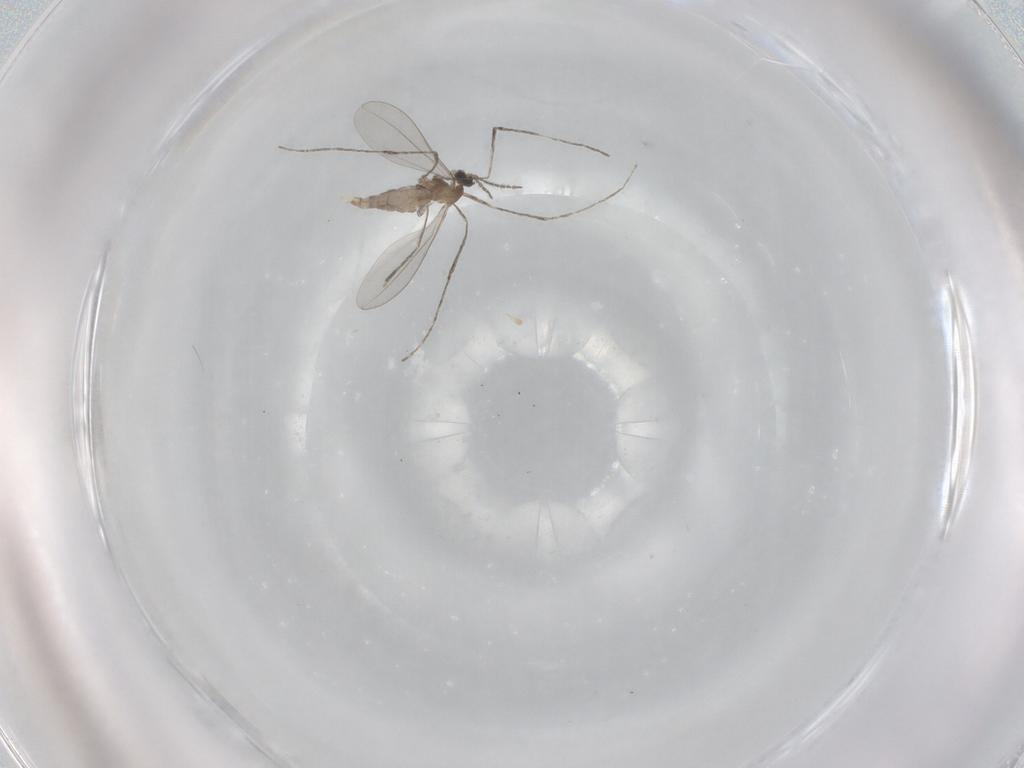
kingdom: Animalia
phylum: Arthropoda
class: Insecta
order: Diptera
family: Cecidomyiidae
